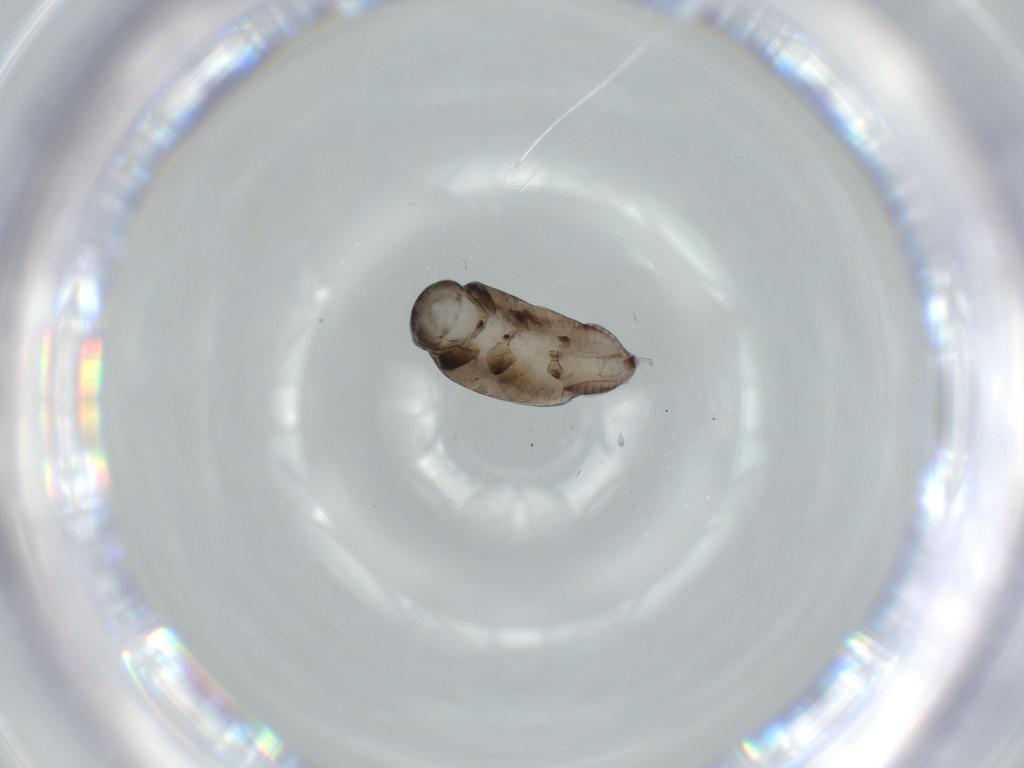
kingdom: Animalia
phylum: Arthropoda
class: Insecta
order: Hymenoptera
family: Rhopalosomatidae
